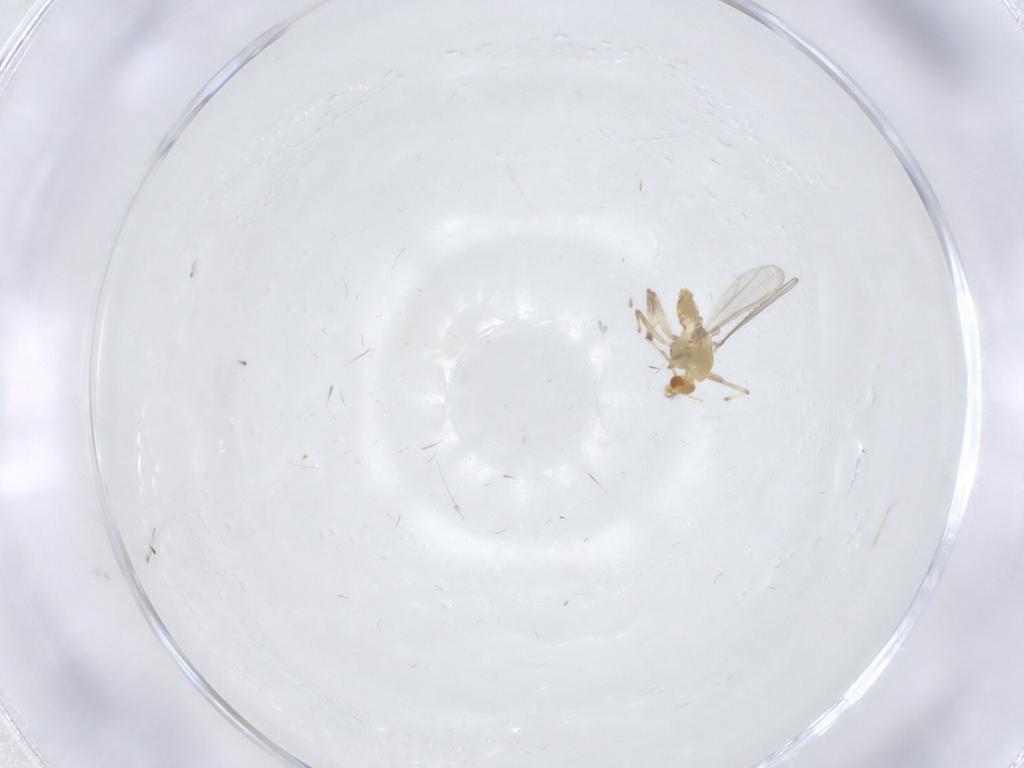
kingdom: Animalia
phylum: Arthropoda
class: Insecta
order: Diptera
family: Chironomidae
